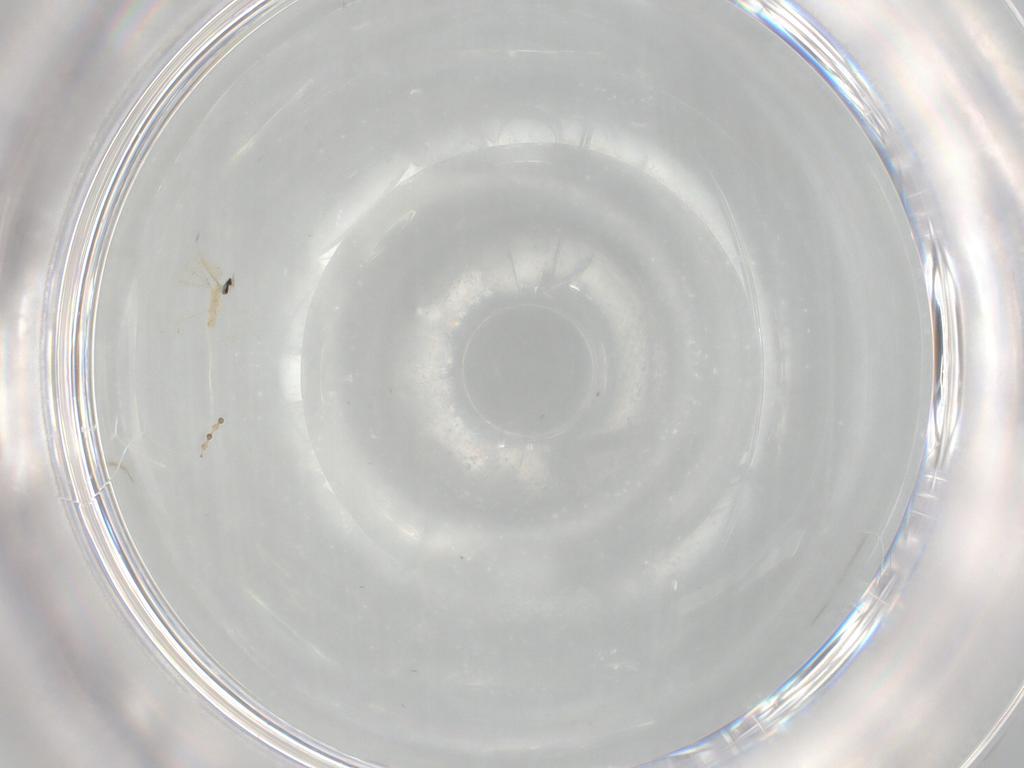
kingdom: Animalia
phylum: Arthropoda
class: Insecta
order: Diptera
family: Cecidomyiidae
